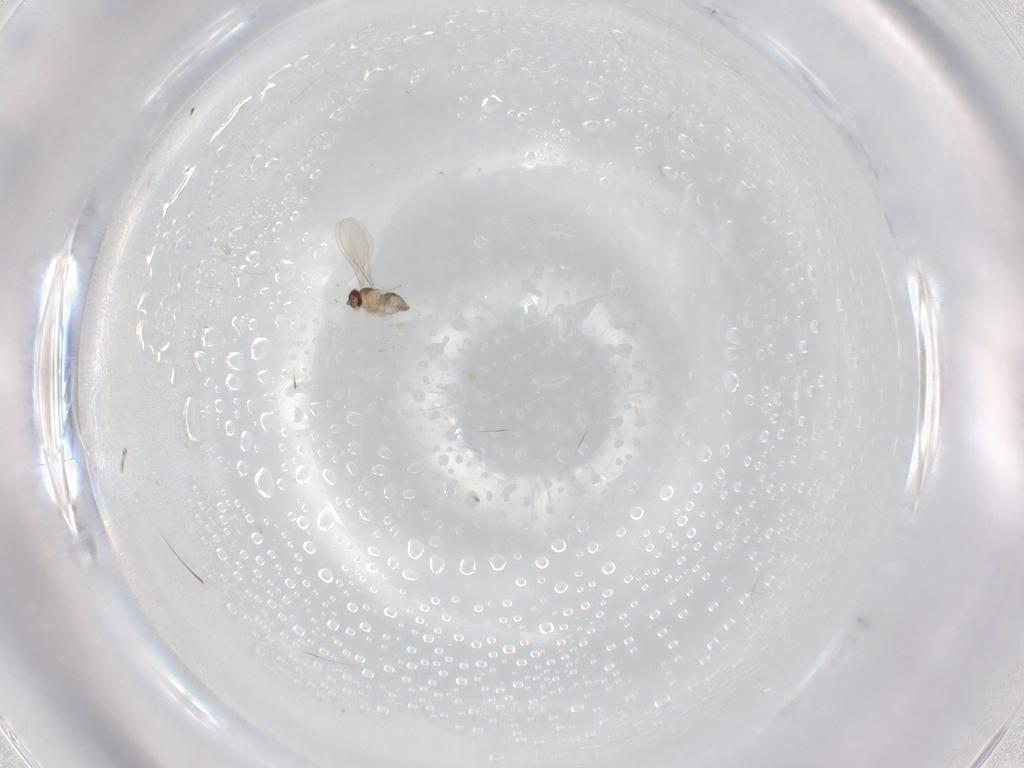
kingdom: Animalia
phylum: Arthropoda
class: Insecta
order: Diptera
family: Cecidomyiidae
